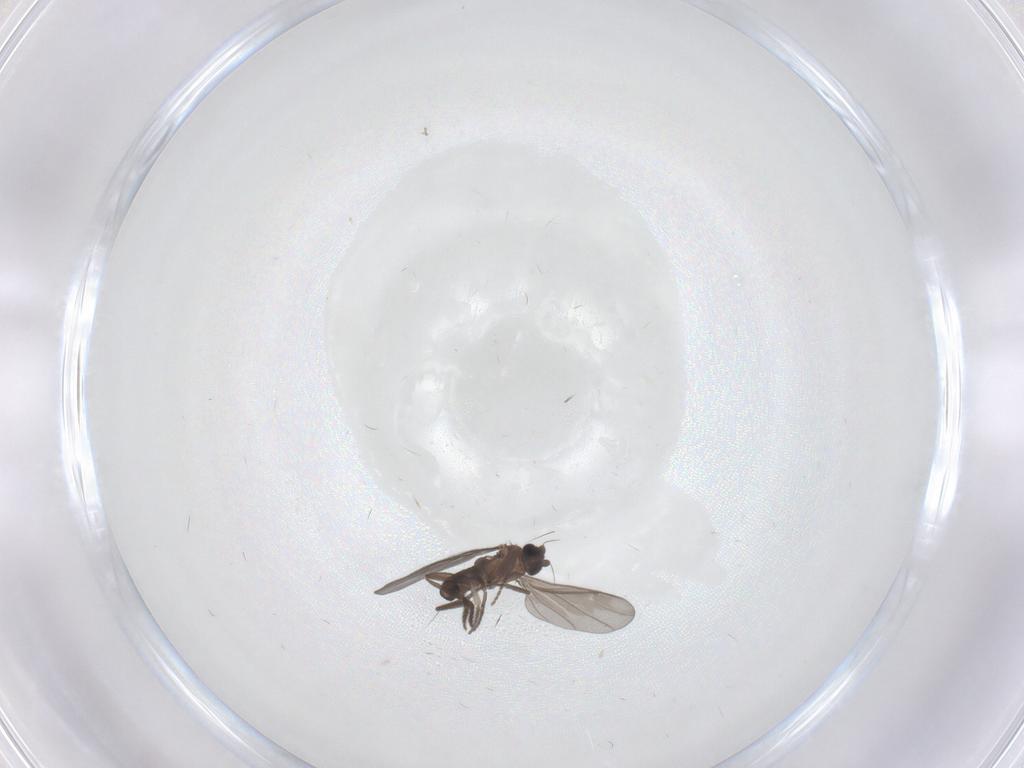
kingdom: Animalia
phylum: Arthropoda
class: Insecta
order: Diptera
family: Phoridae
